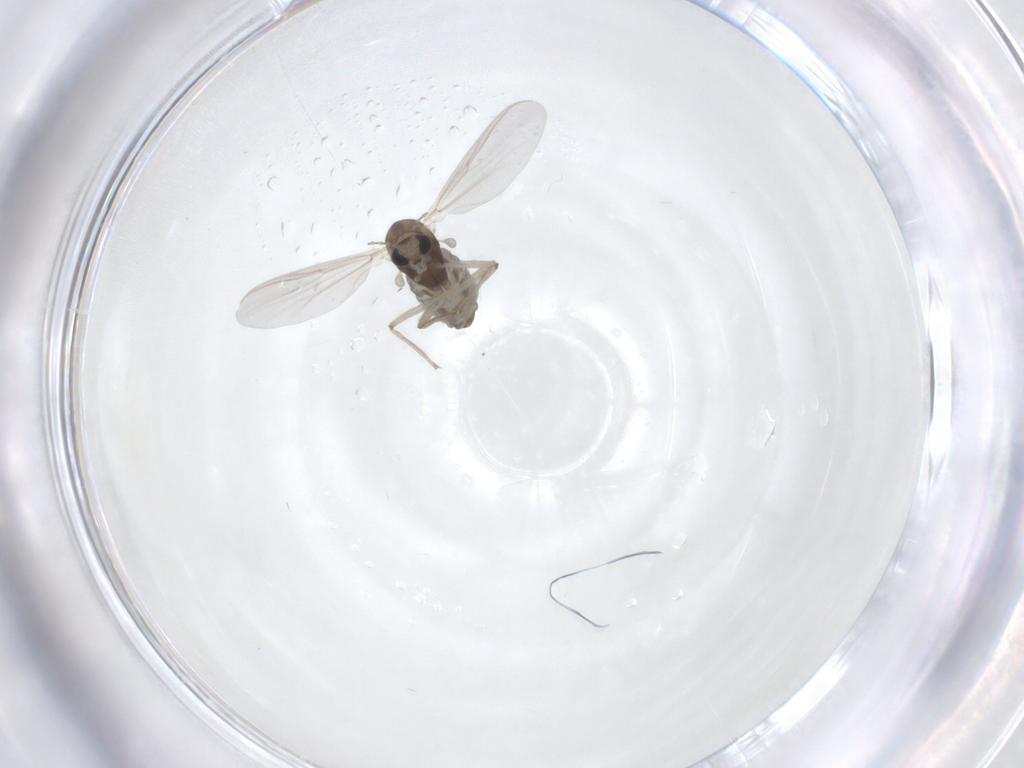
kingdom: Animalia
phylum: Arthropoda
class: Insecta
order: Diptera
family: Chironomidae
